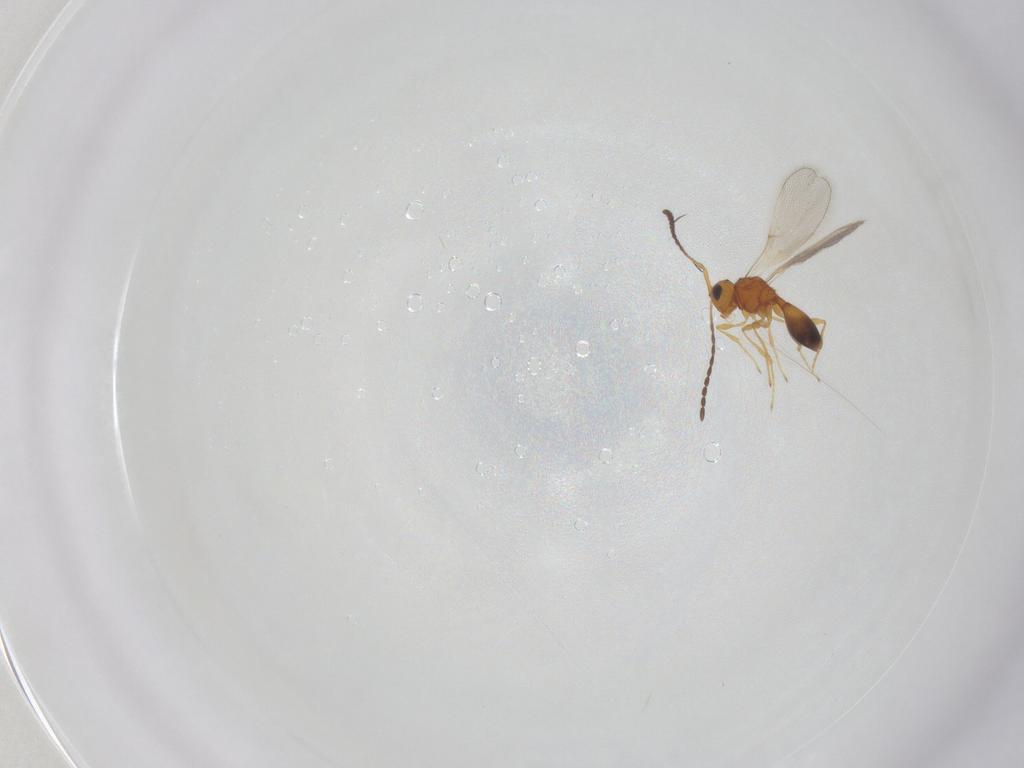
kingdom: Animalia
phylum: Arthropoda
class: Insecta
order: Hymenoptera
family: Diapriidae
